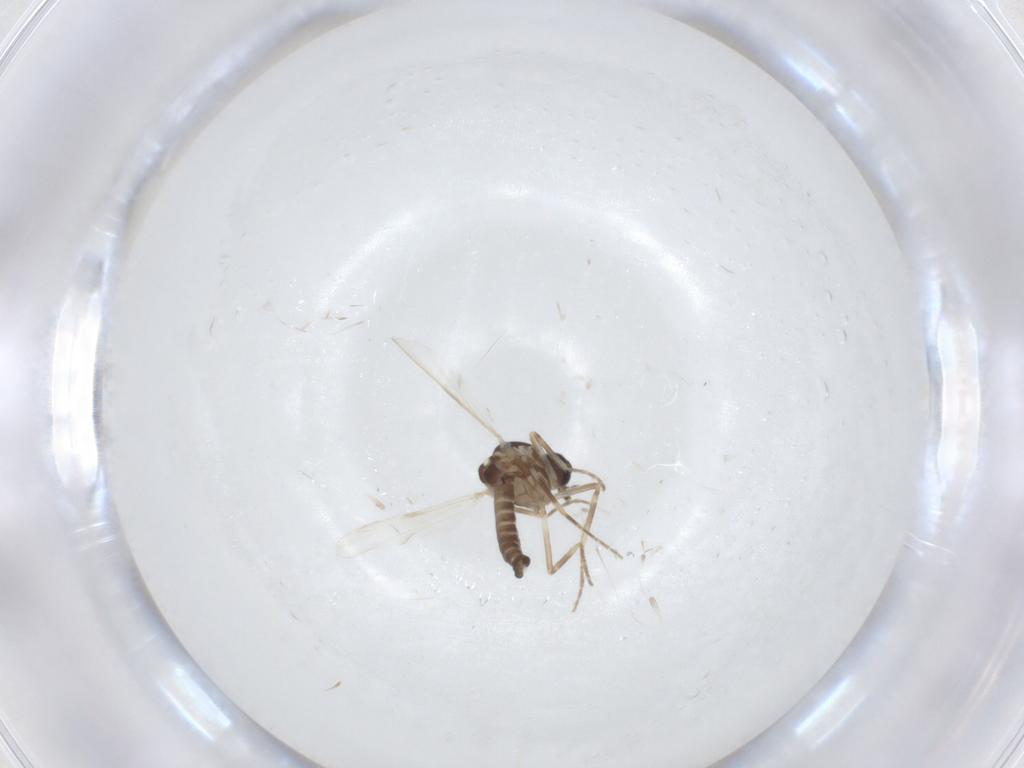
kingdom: Animalia
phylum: Arthropoda
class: Insecta
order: Diptera
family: Ceratopogonidae
